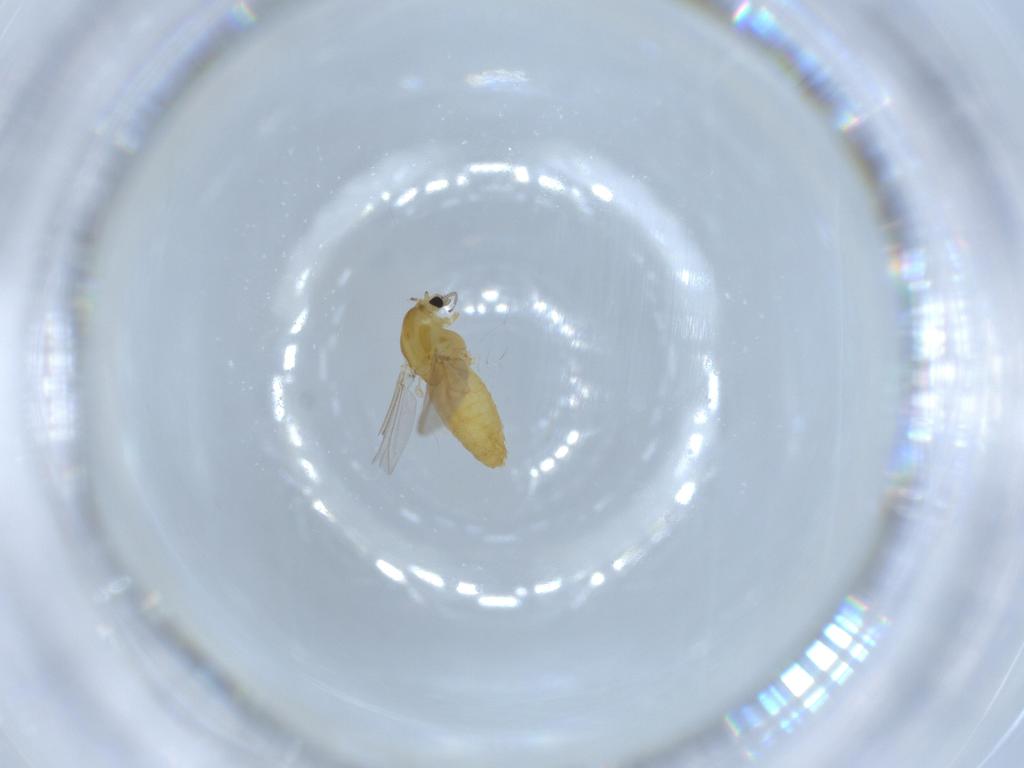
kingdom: Animalia
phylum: Arthropoda
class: Insecta
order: Diptera
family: Chironomidae
